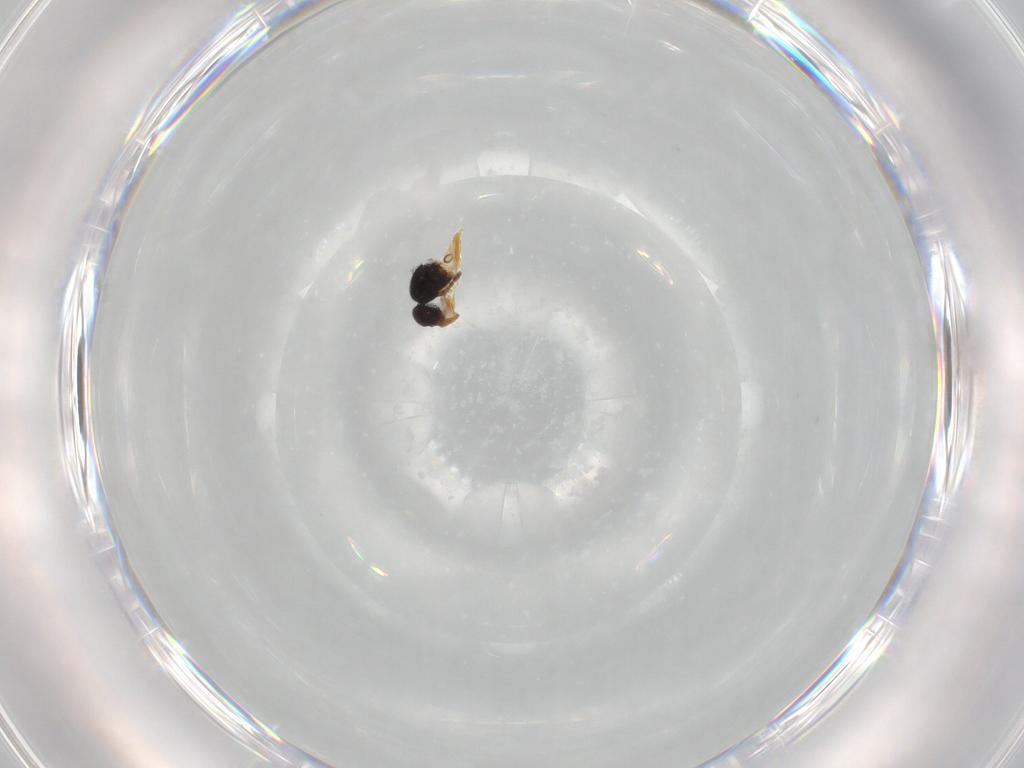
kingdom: Animalia
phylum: Arthropoda
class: Insecta
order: Hymenoptera
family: Ceraphronidae
